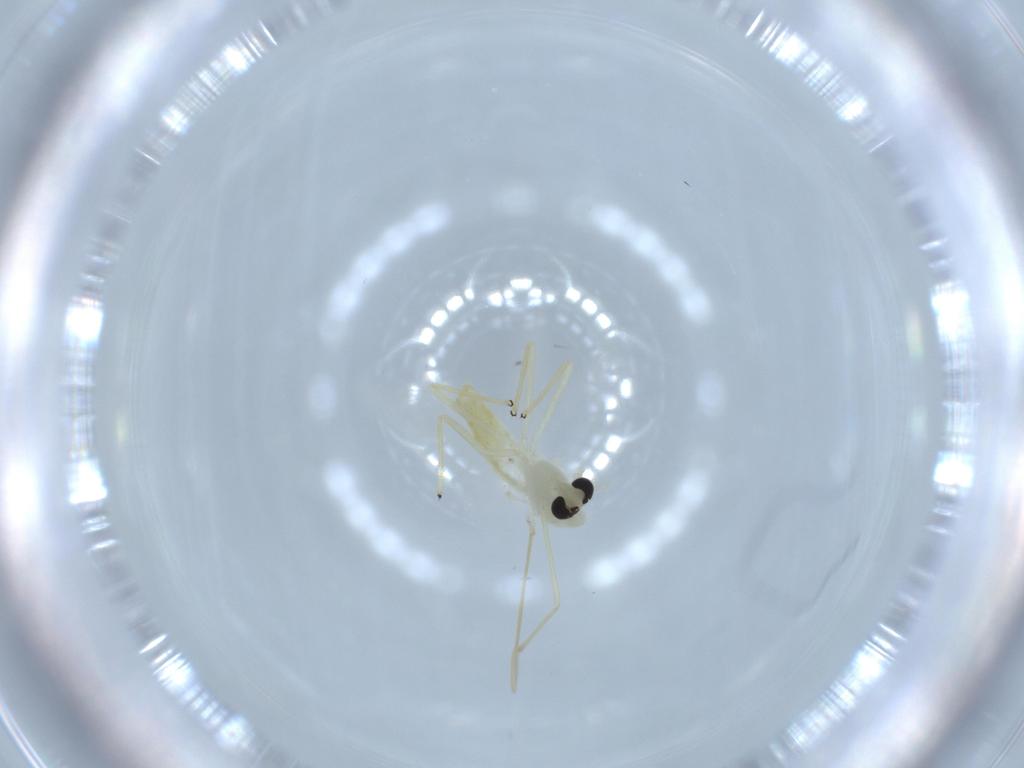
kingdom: Animalia
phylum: Arthropoda
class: Insecta
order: Diptera
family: Chironomidae
